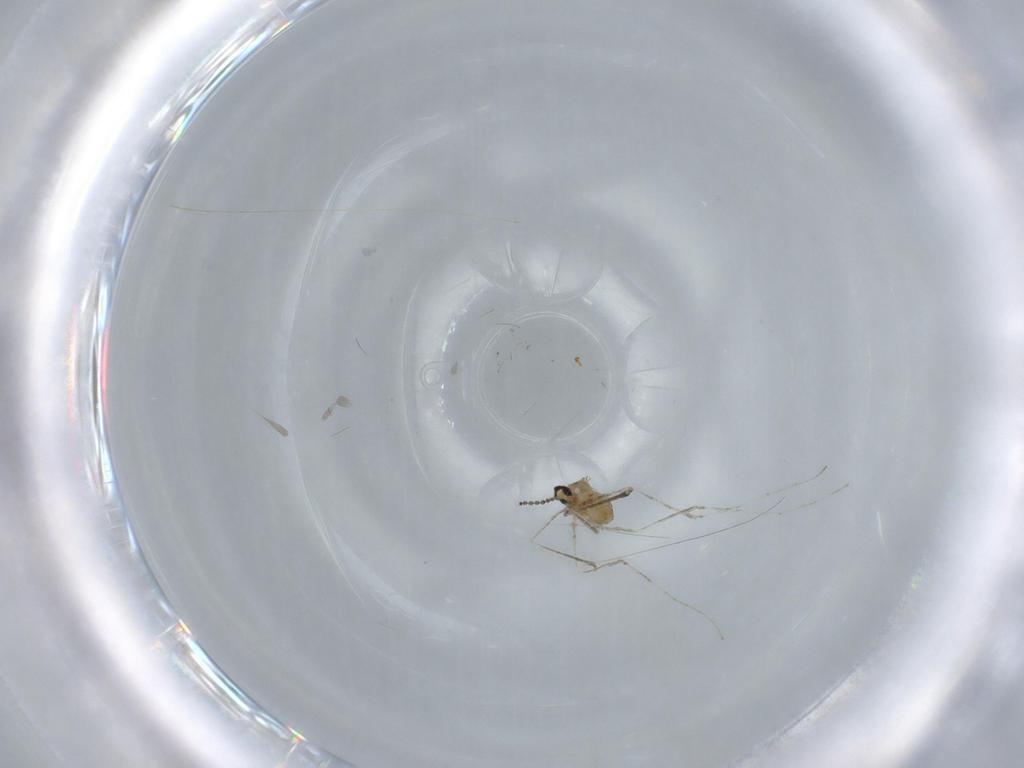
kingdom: Animalia
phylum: Arthropoda
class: Insecta
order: Diptera
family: Cecidomyiidae
